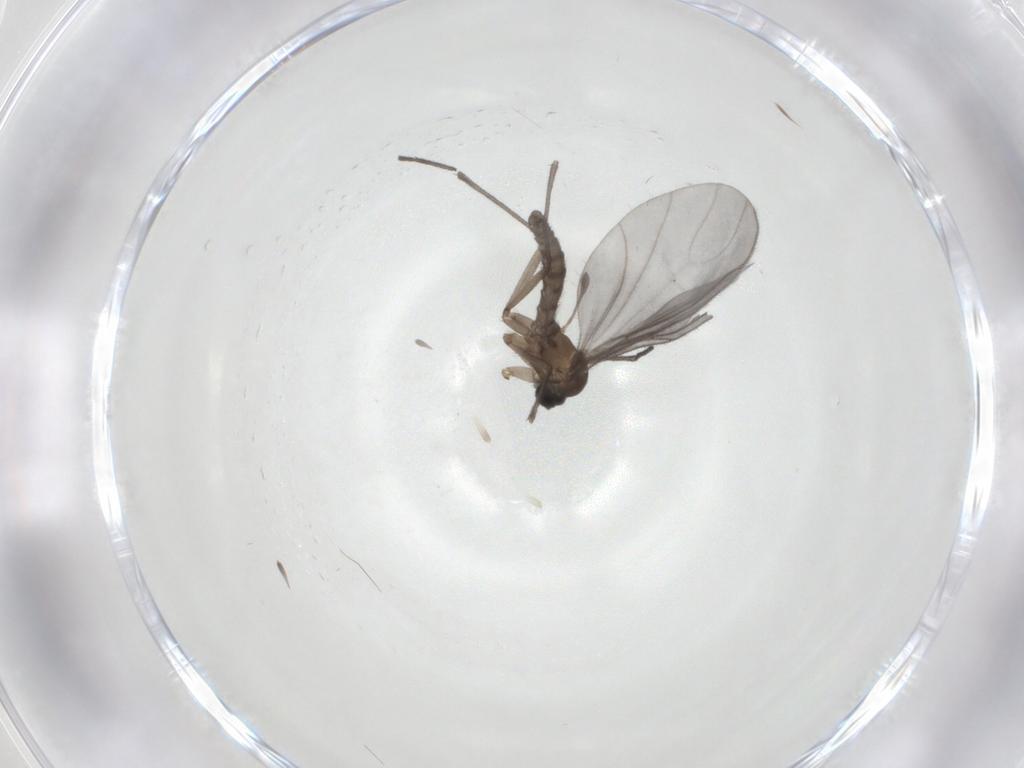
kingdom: Animalia
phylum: Arthropoda
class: Insecta
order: Diptera
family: Sciaridae
